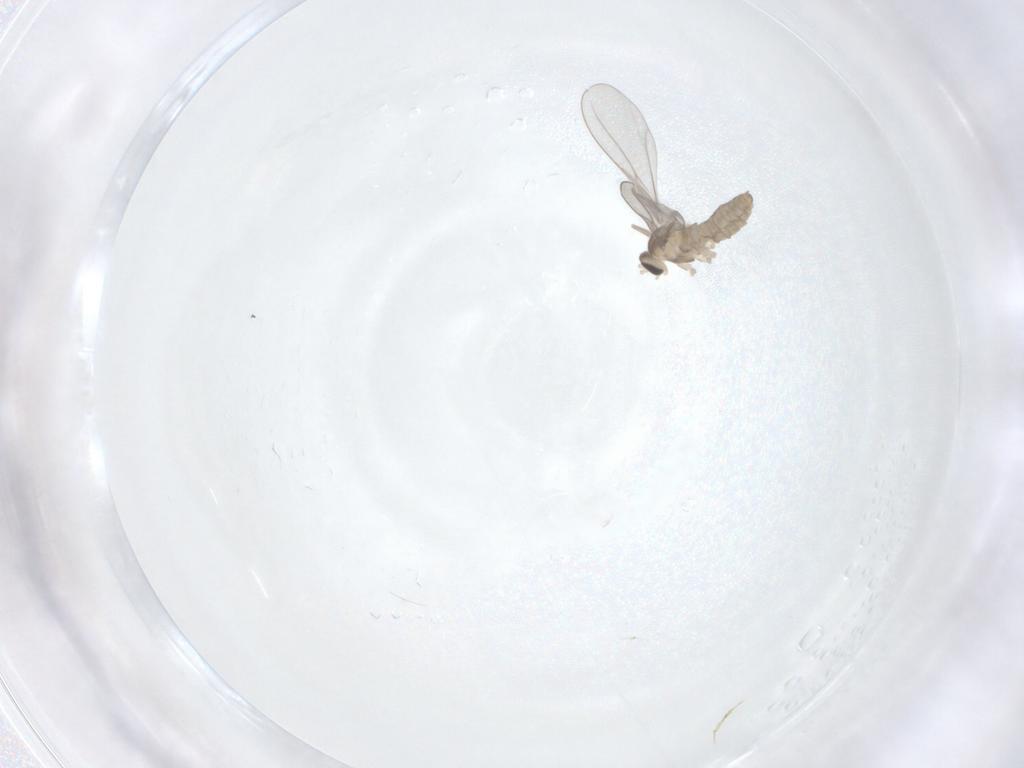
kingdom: Animalia
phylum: Arthropoda
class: Insecta
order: Diptera
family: Cecidomyiidae
